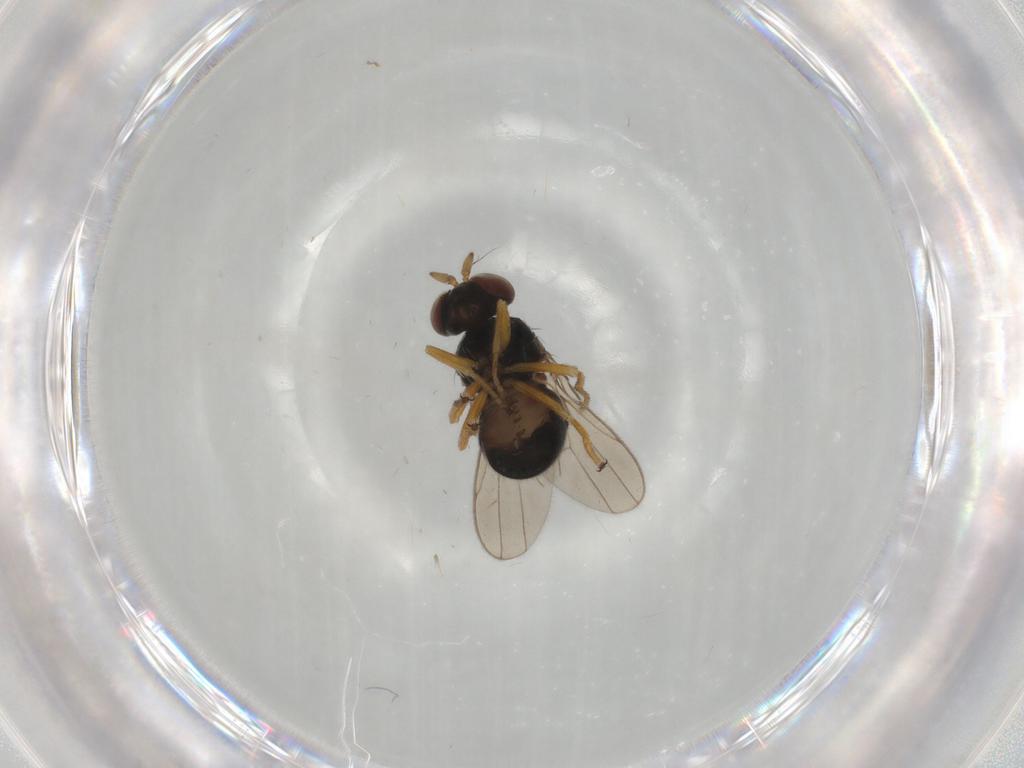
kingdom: Animalia
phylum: Arthropoda
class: Insecta
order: Diptera
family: Ephydridae
